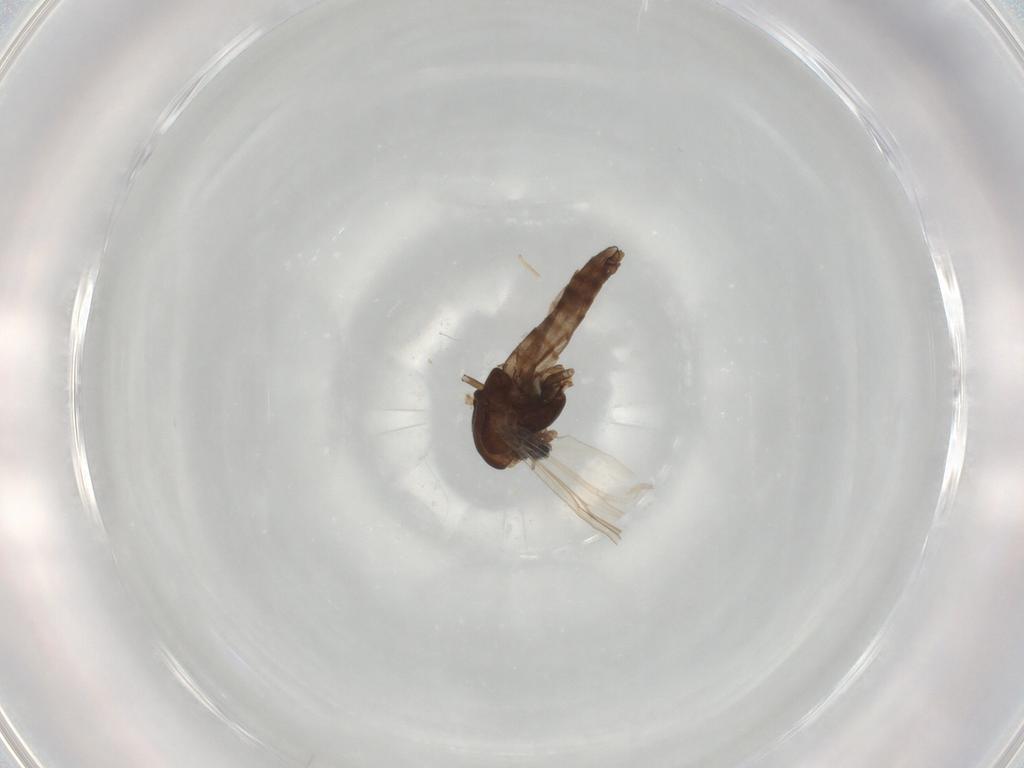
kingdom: Animalia
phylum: Arthropoda
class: Insecta
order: Diptera
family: Chironomidae
